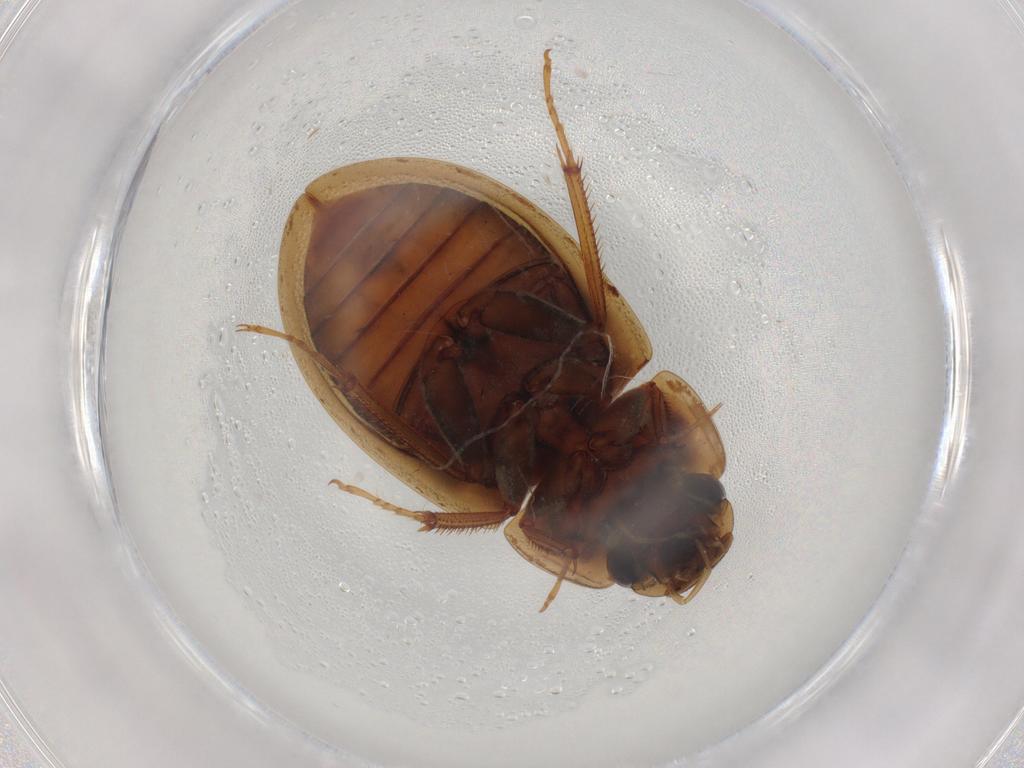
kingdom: Animalia
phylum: Arthropoda
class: Insecta
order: Coleoptera
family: Hydrophilidae
